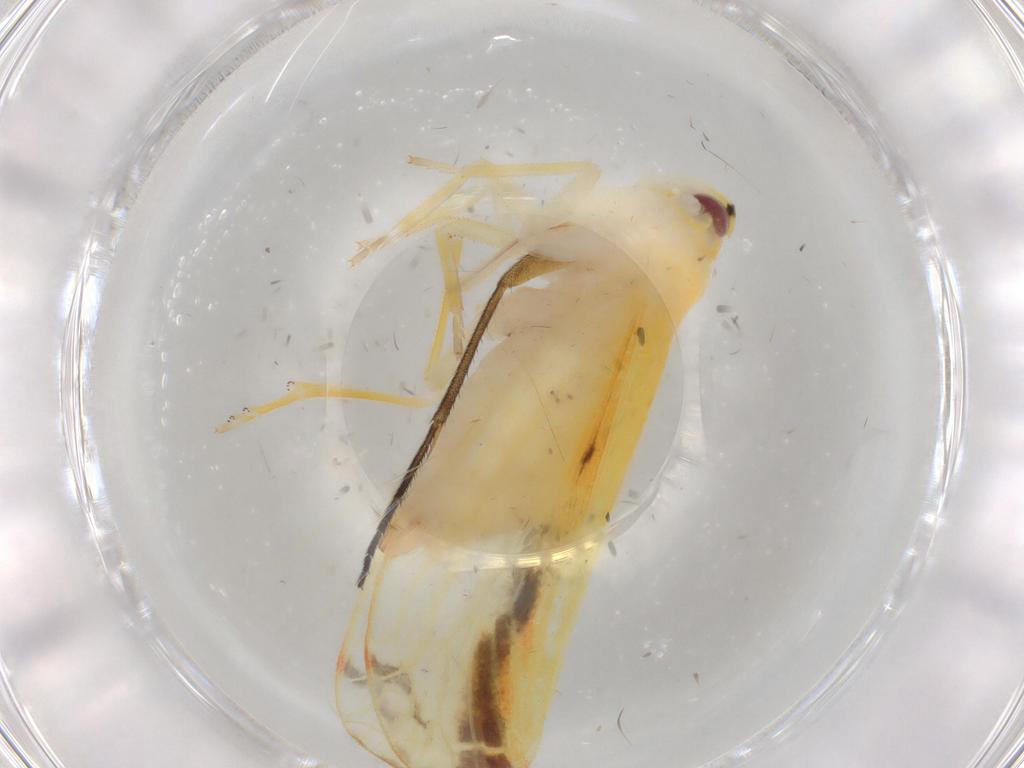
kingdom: Animalia
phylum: Arthropoda
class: Insecta
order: Hemiptera
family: Derbidae
